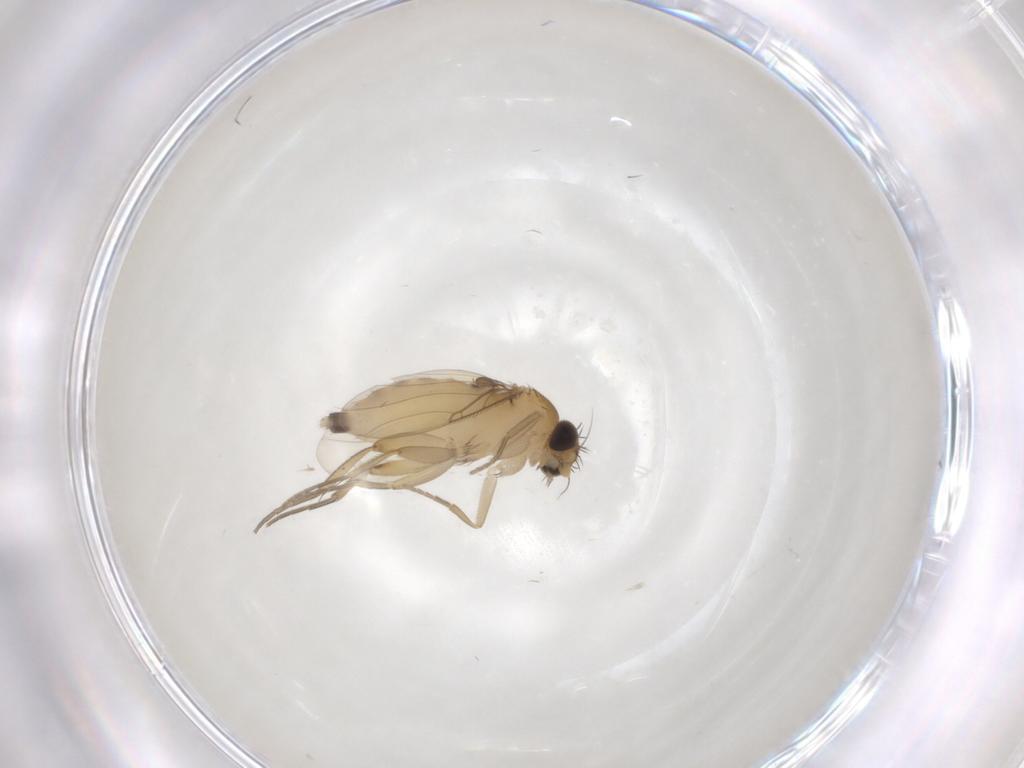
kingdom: Animalia
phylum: Arthropoda
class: Insecta
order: Diptera
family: Phoridae
